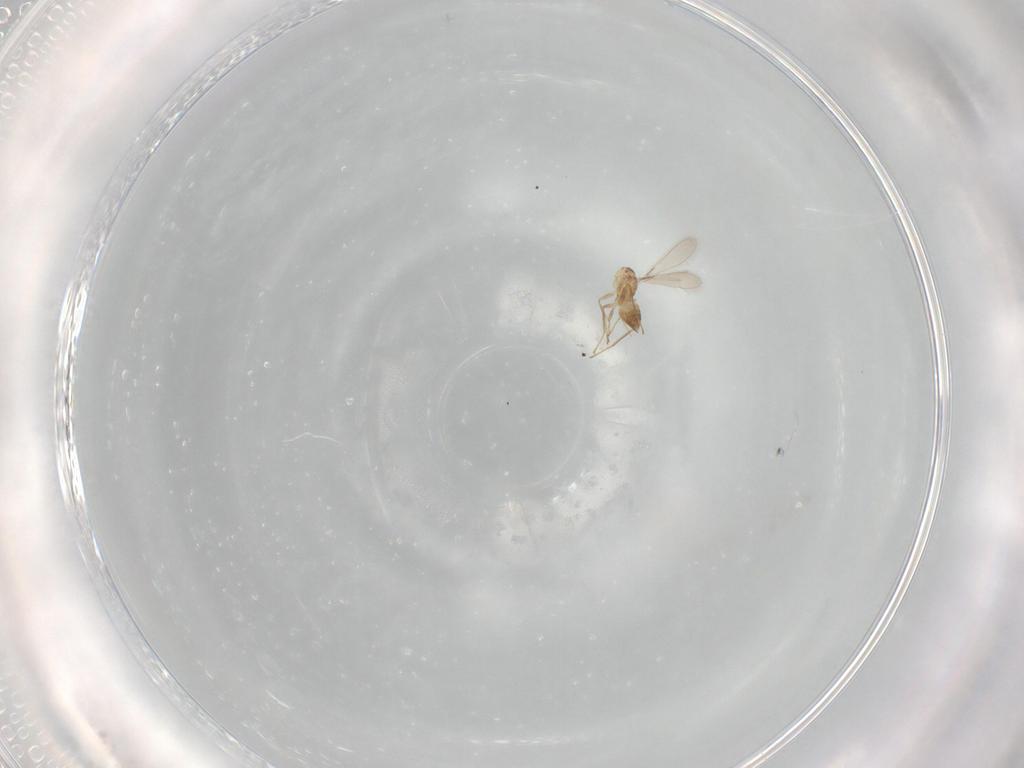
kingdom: Animalia
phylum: Arthropoda
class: Insecta
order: Hymenoptera
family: Mymaridae
